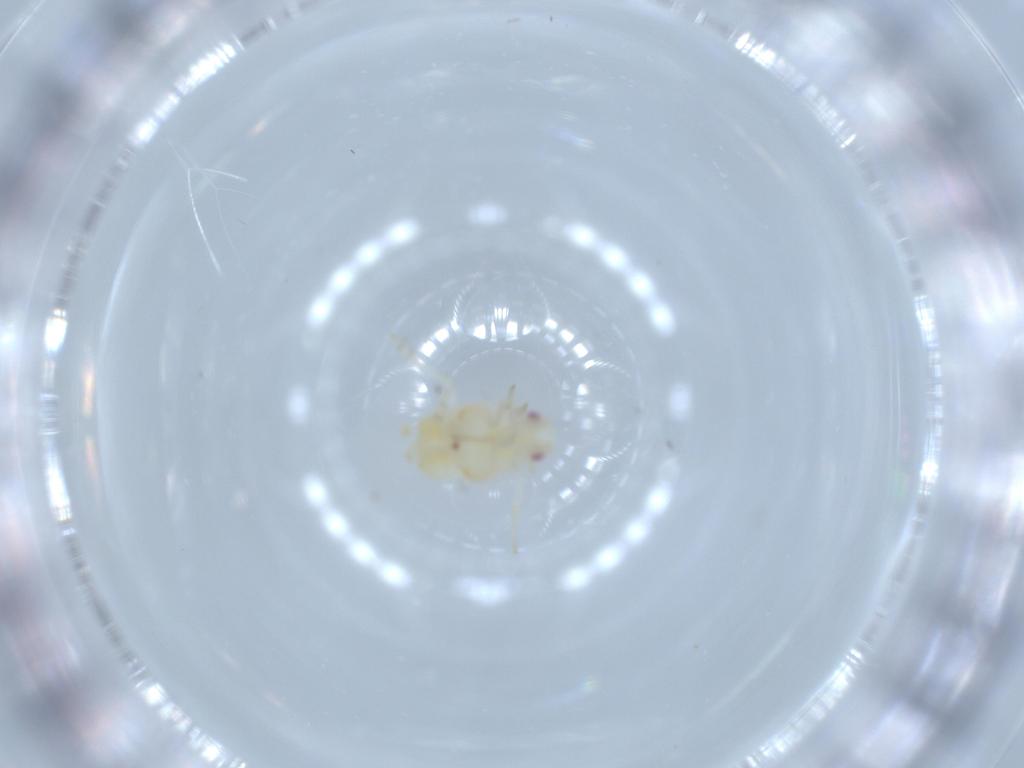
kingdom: Animalia
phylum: Arthropoda
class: Insecta
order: Hemiptera
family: Flatidae
